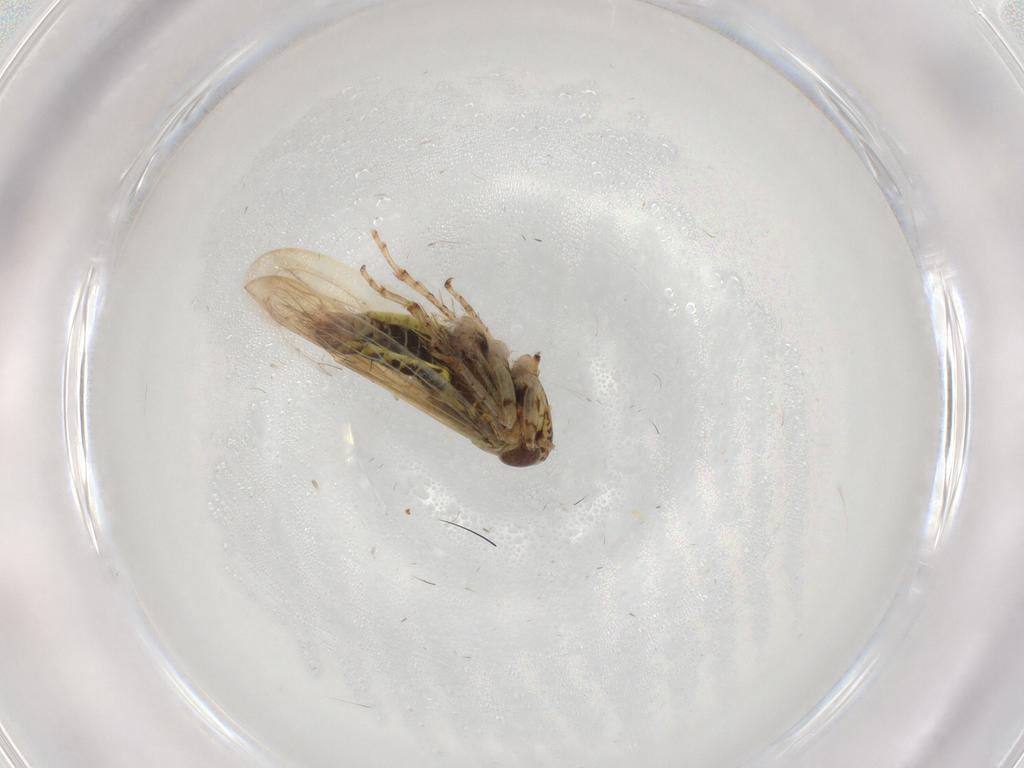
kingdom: Animalia
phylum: Arthropoda
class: Insecta
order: Hemiptera
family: Cicadellidae
